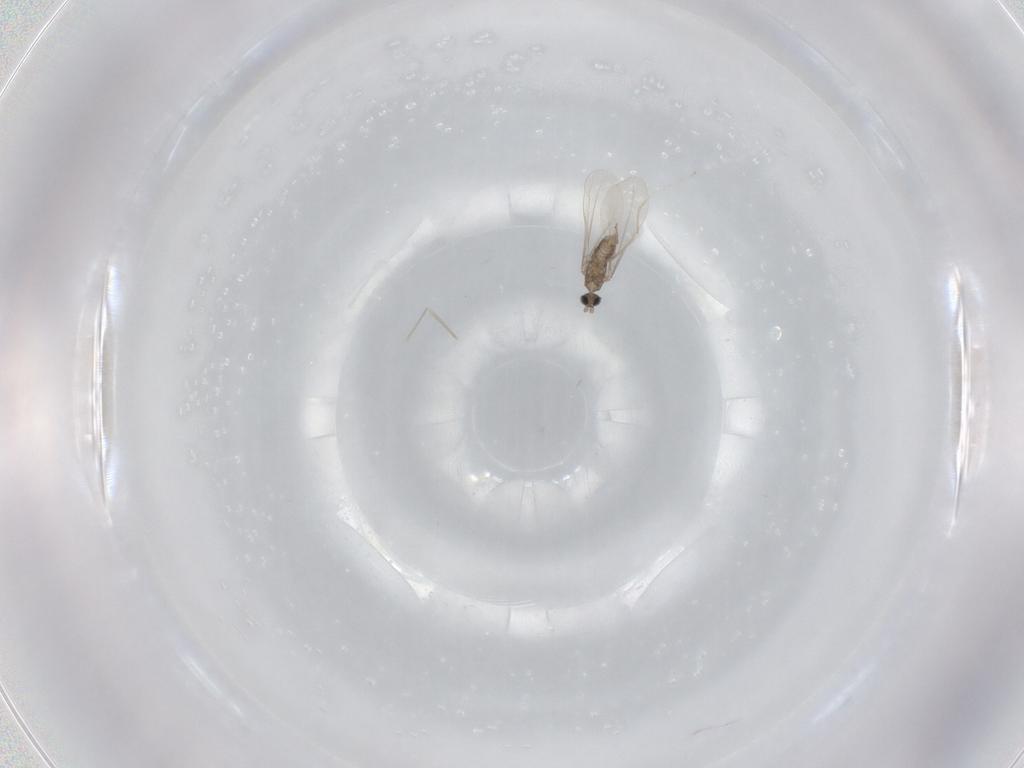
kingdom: Animalia
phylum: Arthropoda
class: Insecta
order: Diptera
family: Cecidomyiidae
